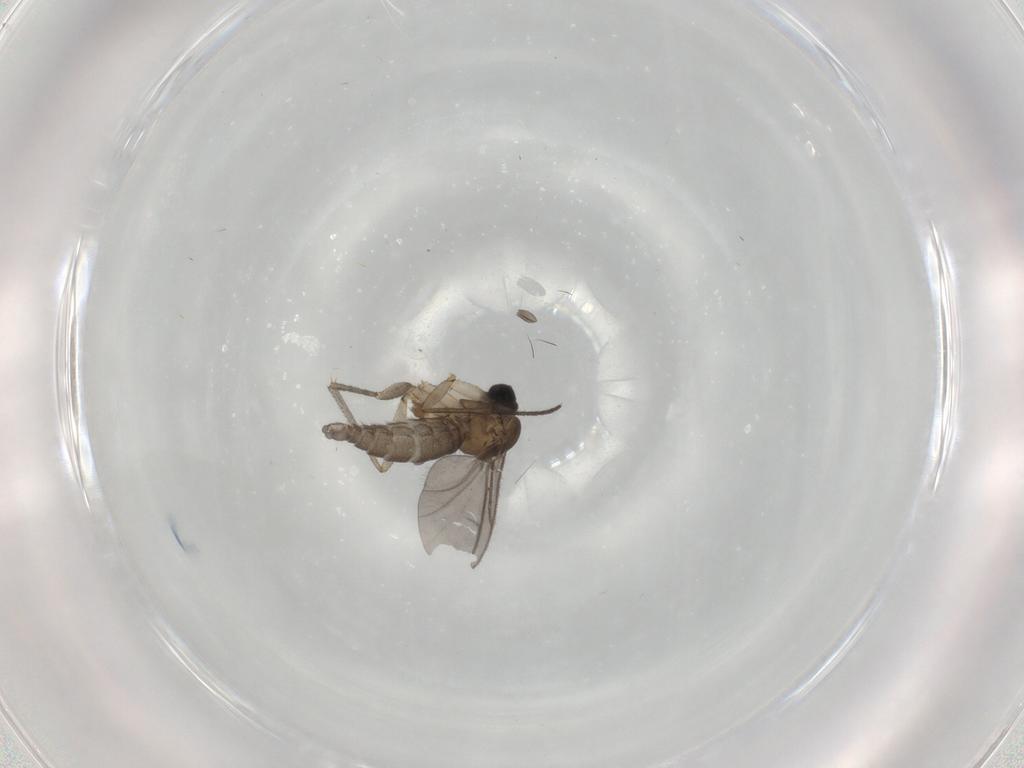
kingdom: Animalia
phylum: Arthropoda
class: Insecta
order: Diptera
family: Sciaridae
